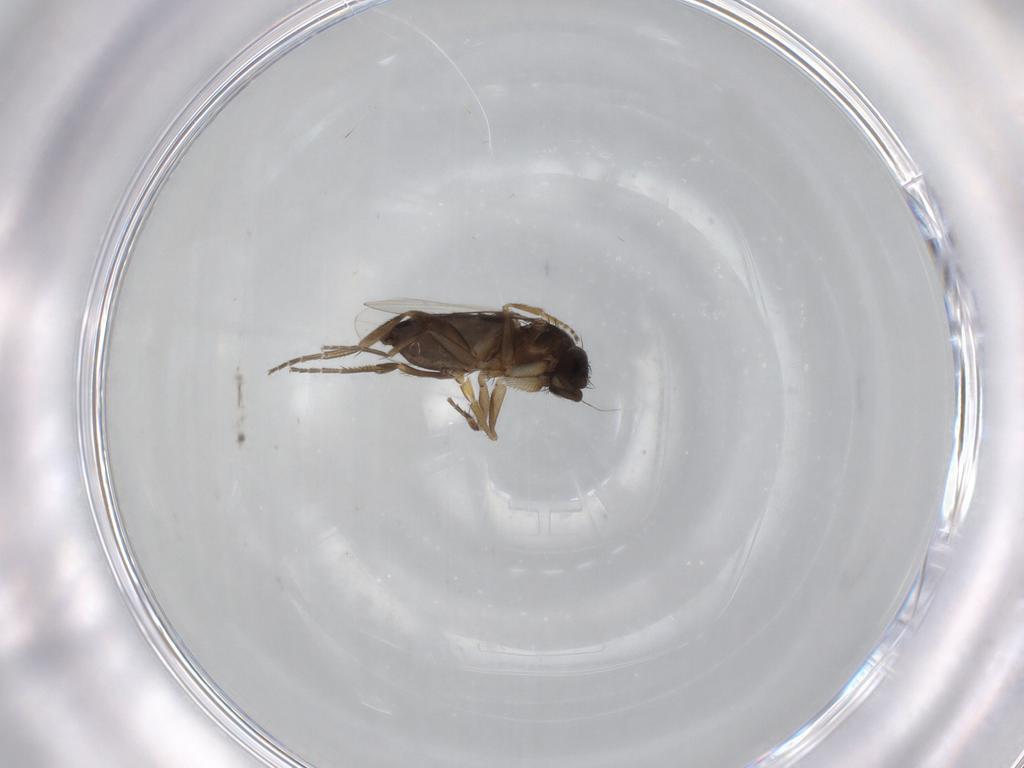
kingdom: Animalia
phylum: Arthropoda
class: Insecta
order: Diptera
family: Phoridae
